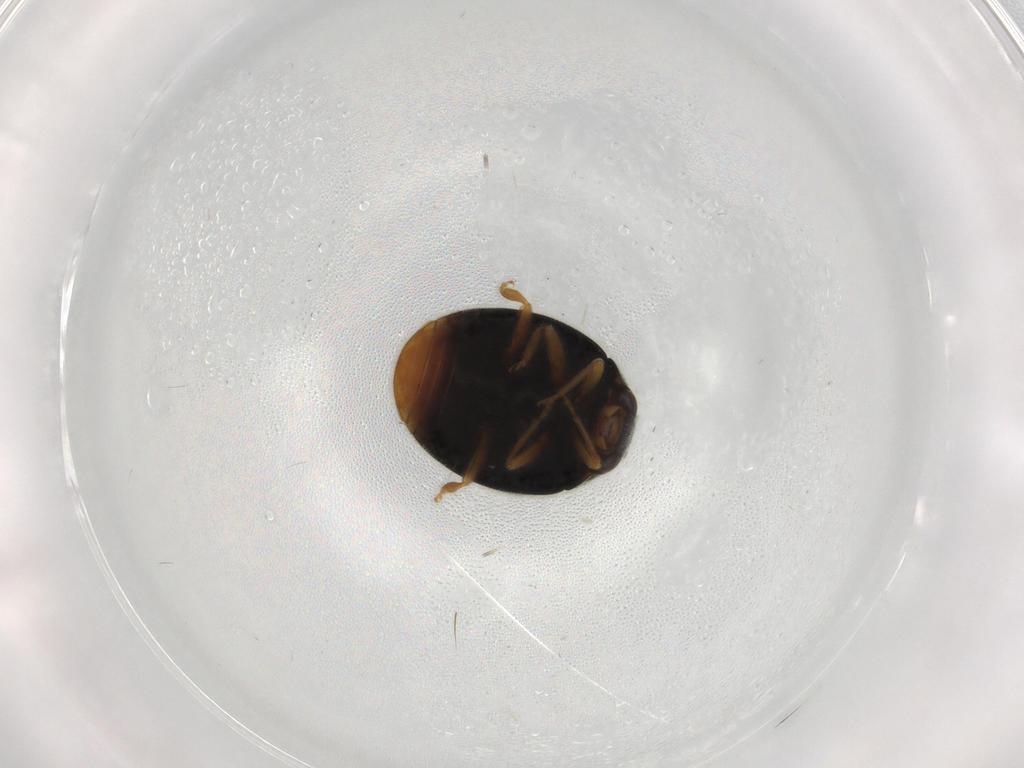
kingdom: Animalia
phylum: Arthropoda
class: Insecta
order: Coleoptera
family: Coccinellidae
